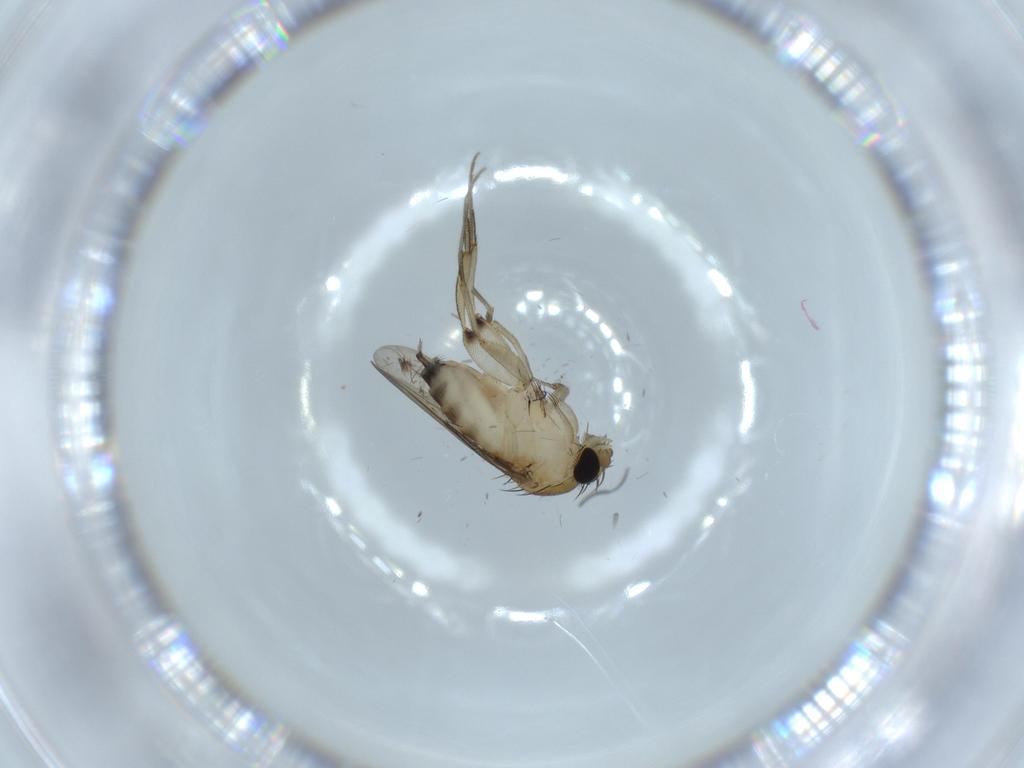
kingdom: Animalia
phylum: Arthropoda
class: Insecta
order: Diptera
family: Phoridae
